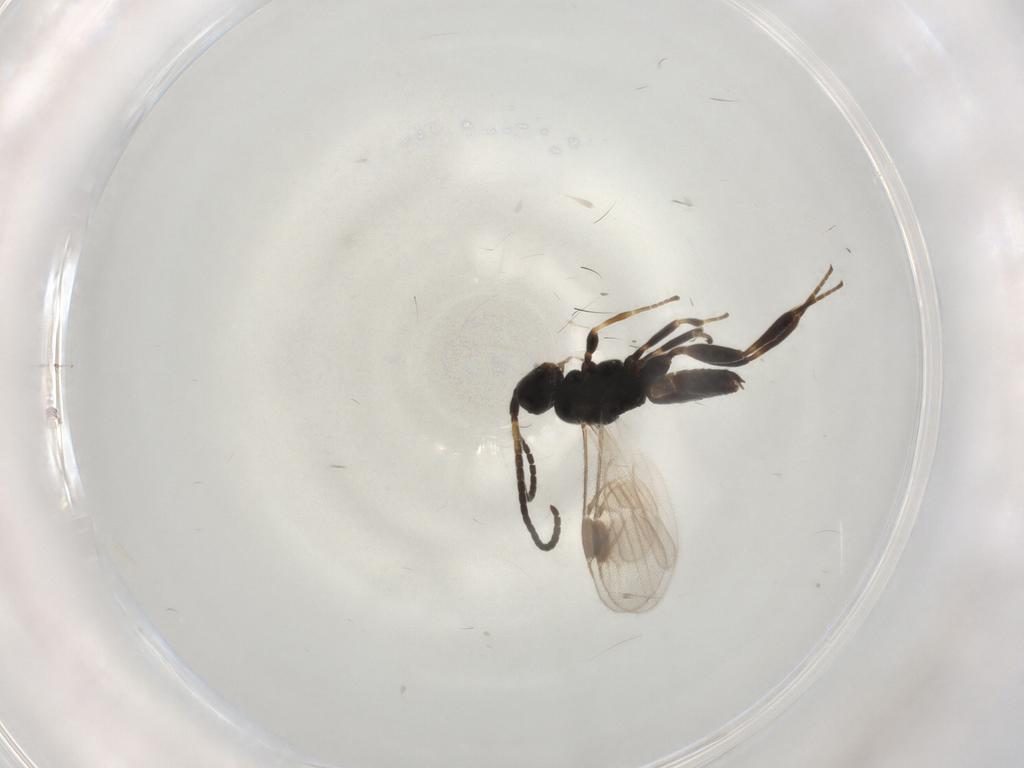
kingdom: Animalia
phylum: Arthropoda
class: Insecta
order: Hymenoptera
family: Braconidae
